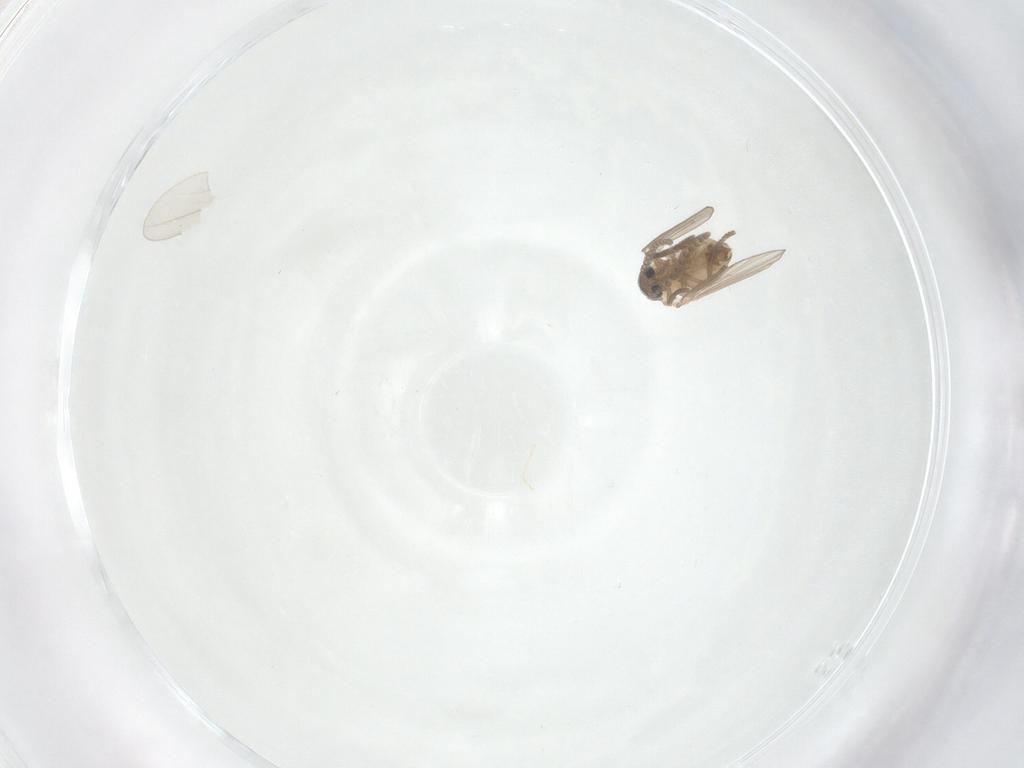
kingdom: Animalia
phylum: Arthropoda
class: Insecta
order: Diptera
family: Psychodidae
